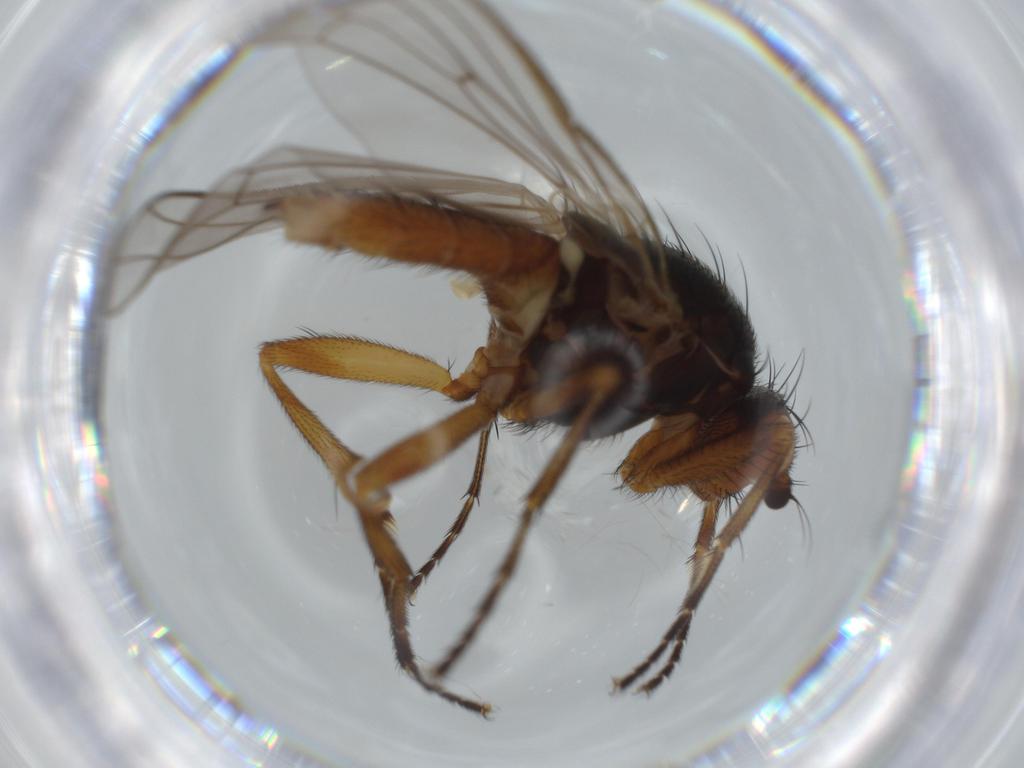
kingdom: Animalia
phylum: Arthropoda
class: Insecta
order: Diptera
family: Heleomyzidae
